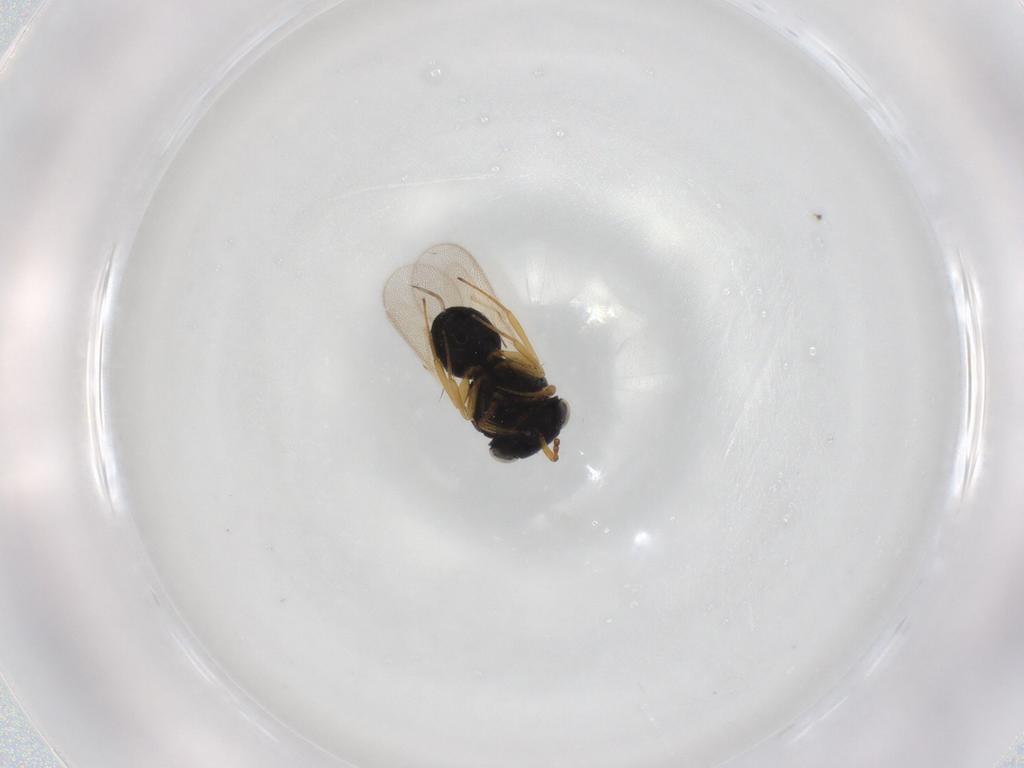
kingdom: Animalia
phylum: Arthropoda
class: Insecta
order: Hymenoptera
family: Scelionidae
